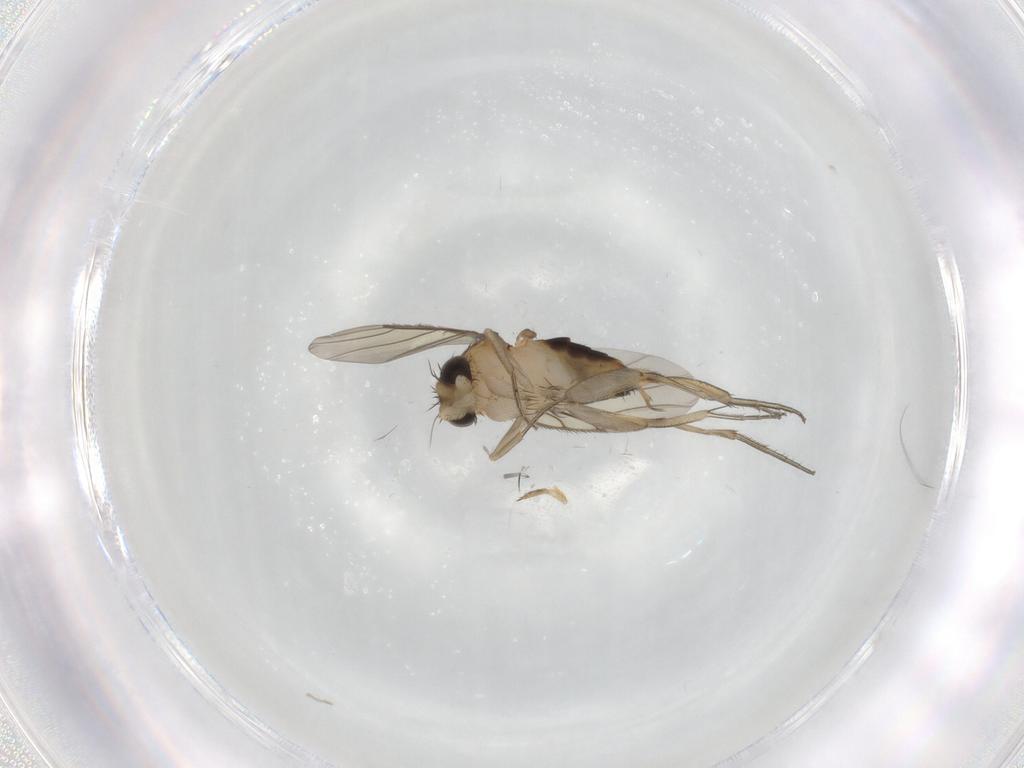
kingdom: Animalia
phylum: Arthropoda
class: Insecta
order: Diptera
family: Phoridae
